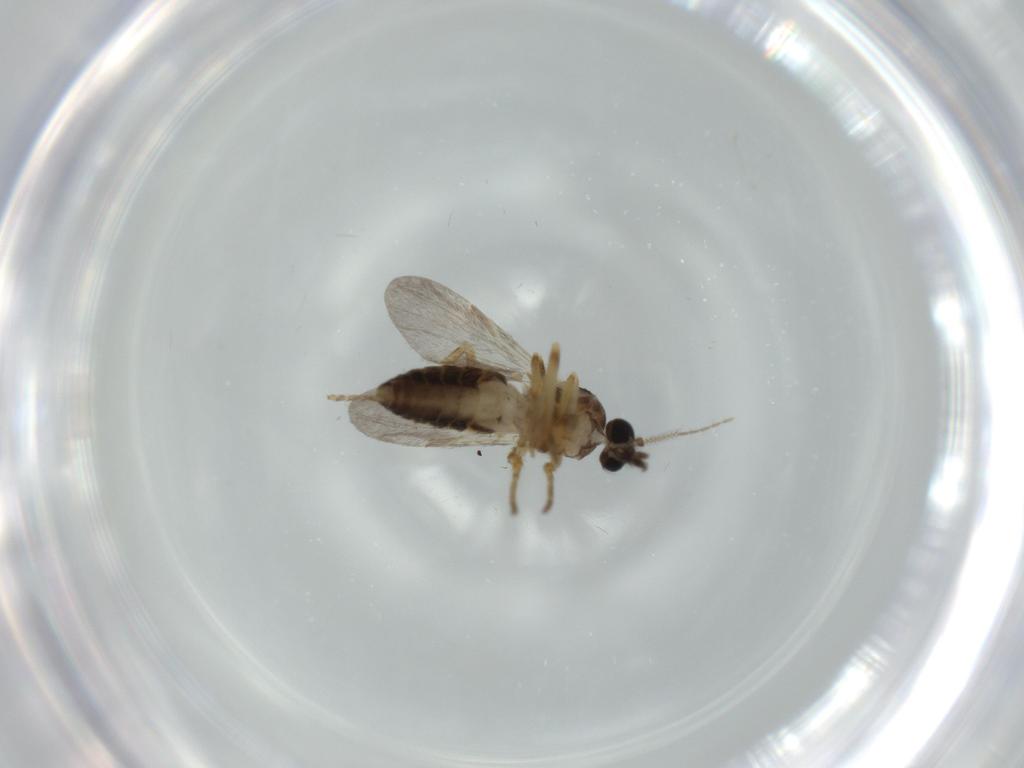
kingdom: Animalia
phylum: Arthropoda
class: Insecta
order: Diptera
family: Ceratopogonidae
